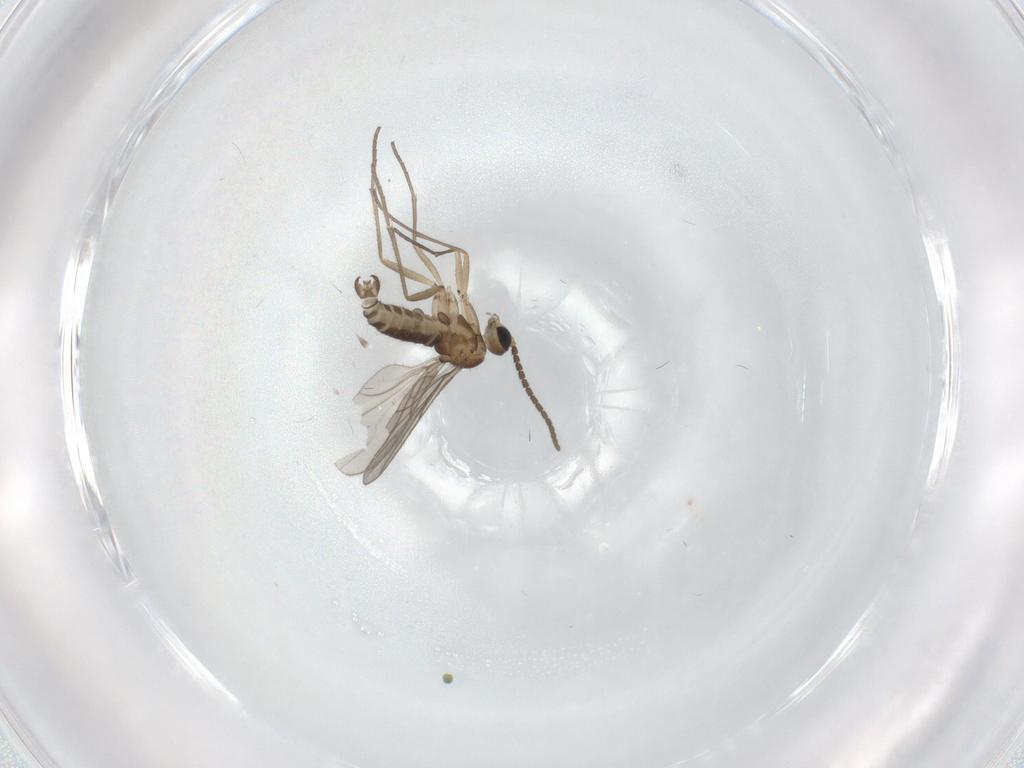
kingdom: Animalia
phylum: Arthropoda
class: Insecta
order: Diptera
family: Sciaridae
